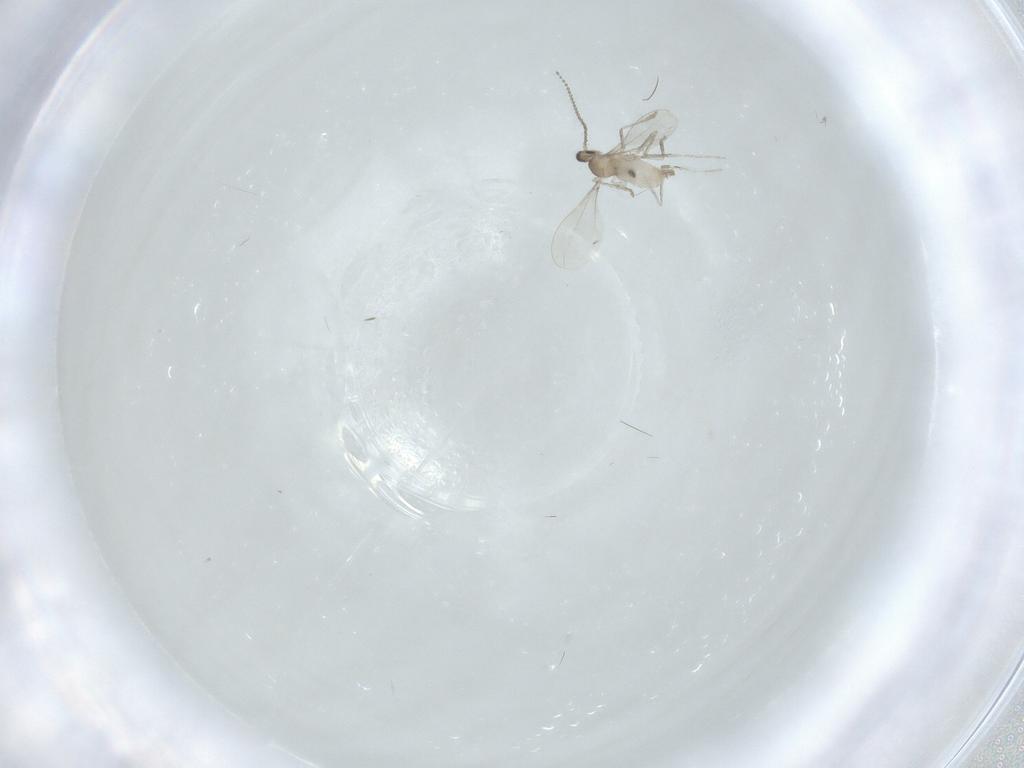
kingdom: Animalia
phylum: Arthropoda
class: Insecta
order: Diptera
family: Cecidomyiidae
